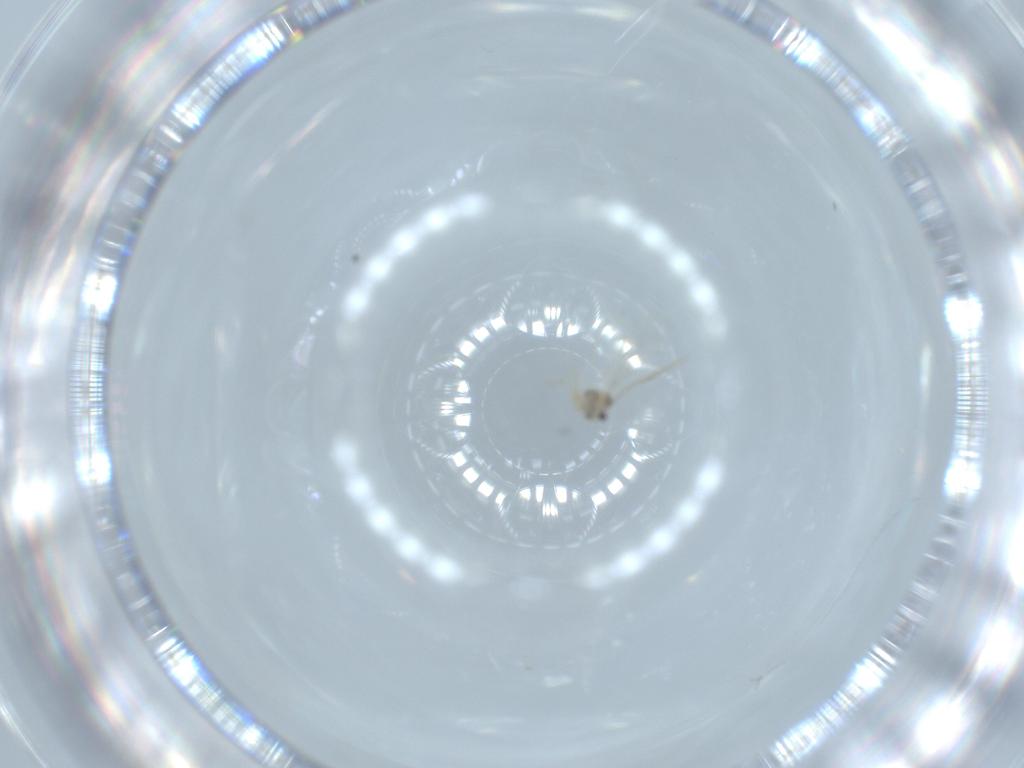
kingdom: Animalia
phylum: Arthropoda
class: Insecta
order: Diptera
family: Cecidomyiidae
